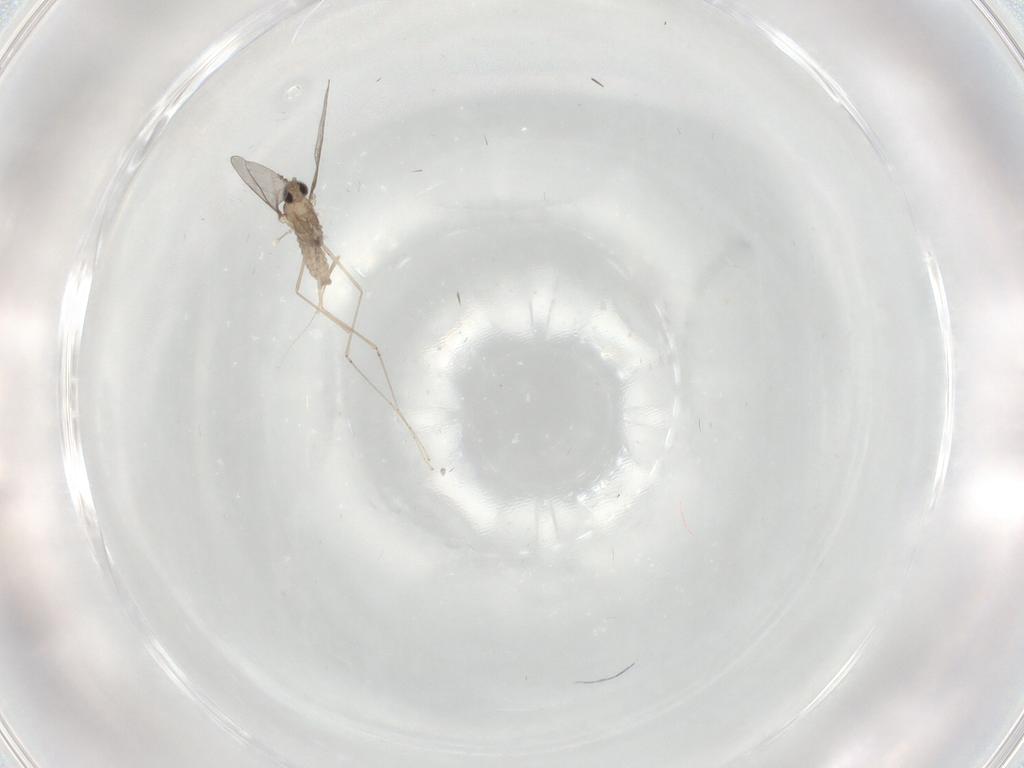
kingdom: Animalia
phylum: Arthropoda
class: Insecta
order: Diptera
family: Cecidomyiidae
